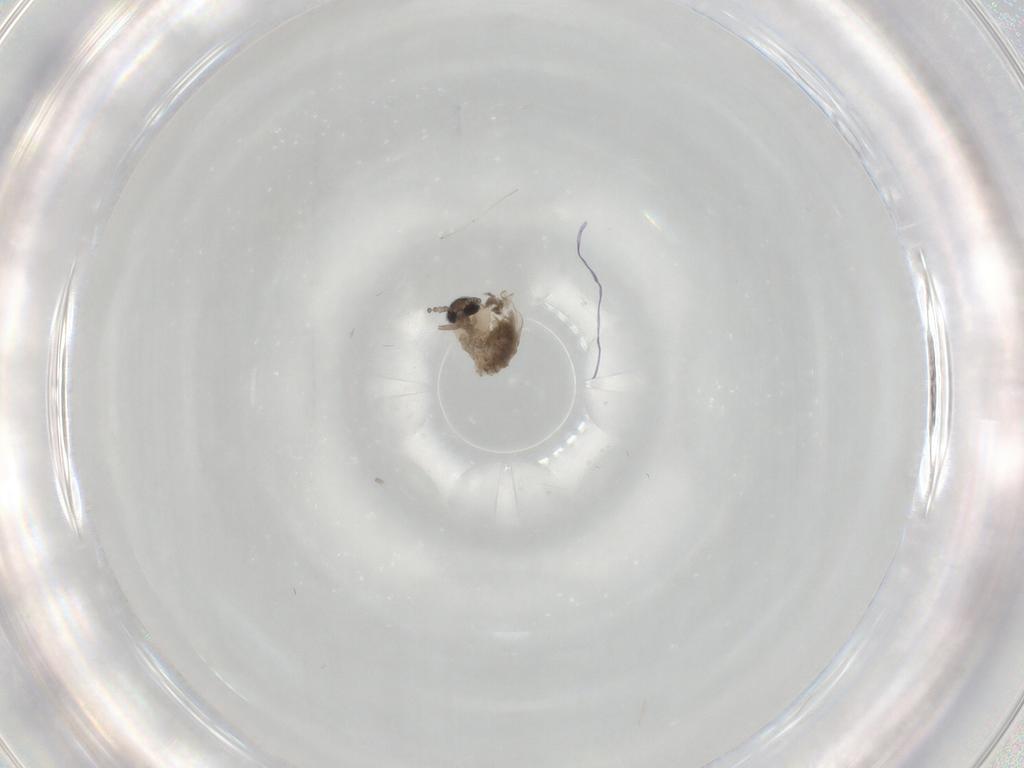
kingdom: Animalia
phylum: Arthropoda
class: Insecta
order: Diptera
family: Psychodidae
